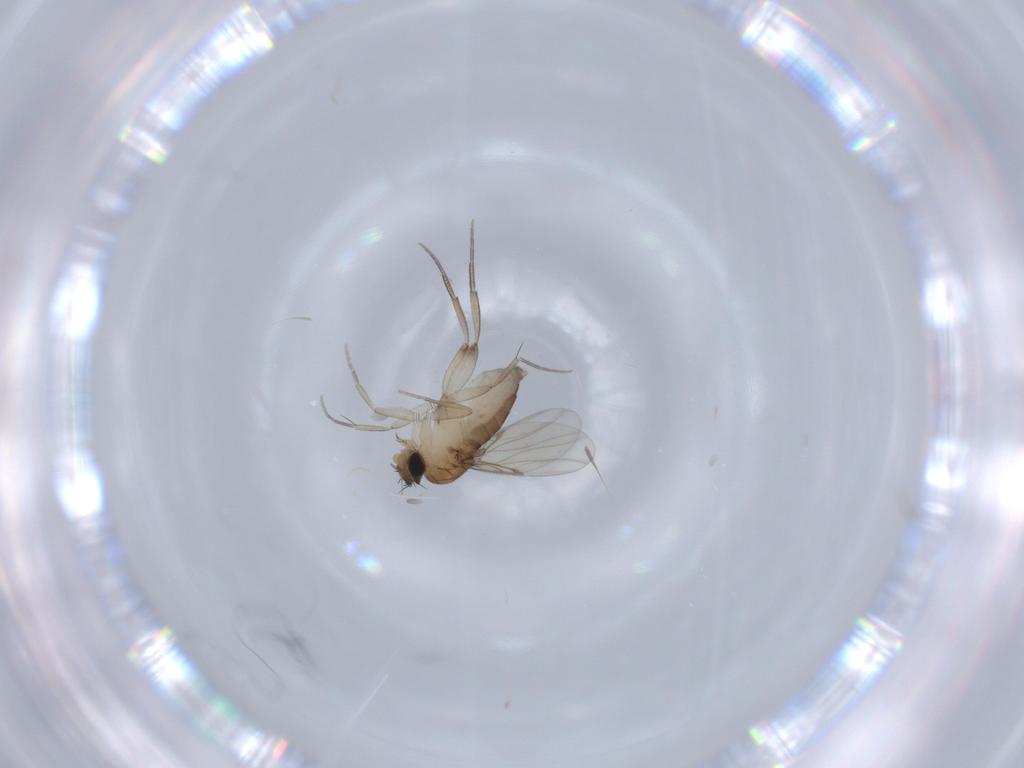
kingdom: Animalia
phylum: Arthropoda
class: Insecta
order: Diptera
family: Phoridae
